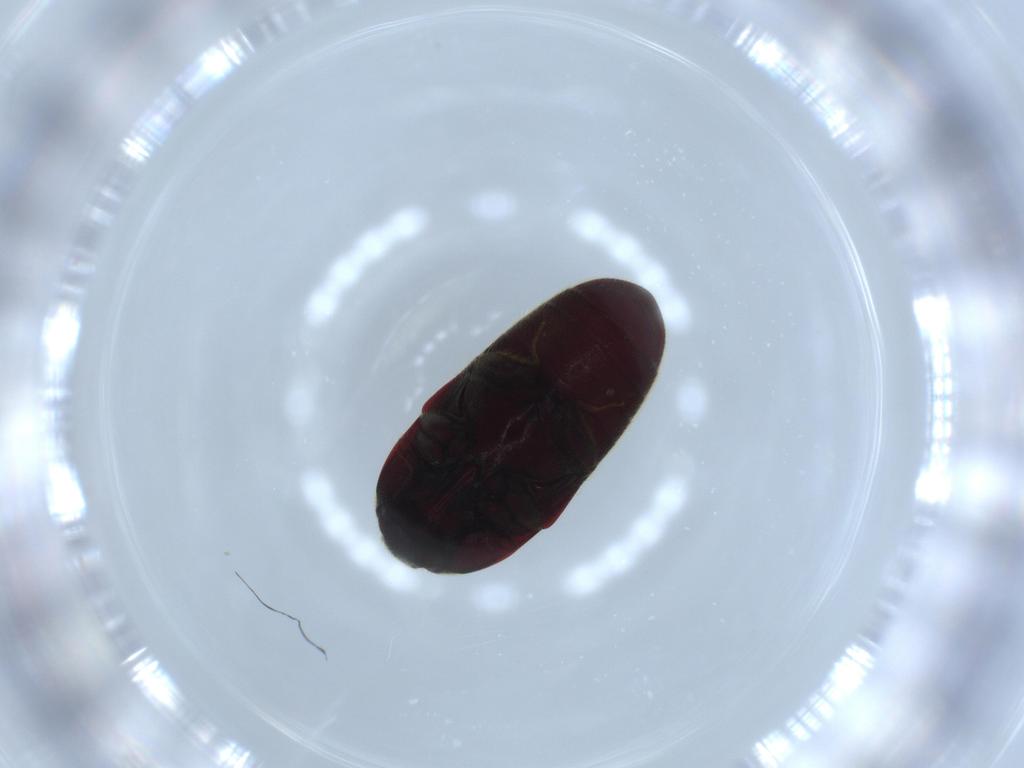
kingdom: Animalia
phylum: Arthropoda
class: Insecta
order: Coleoptera
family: Throscidae
